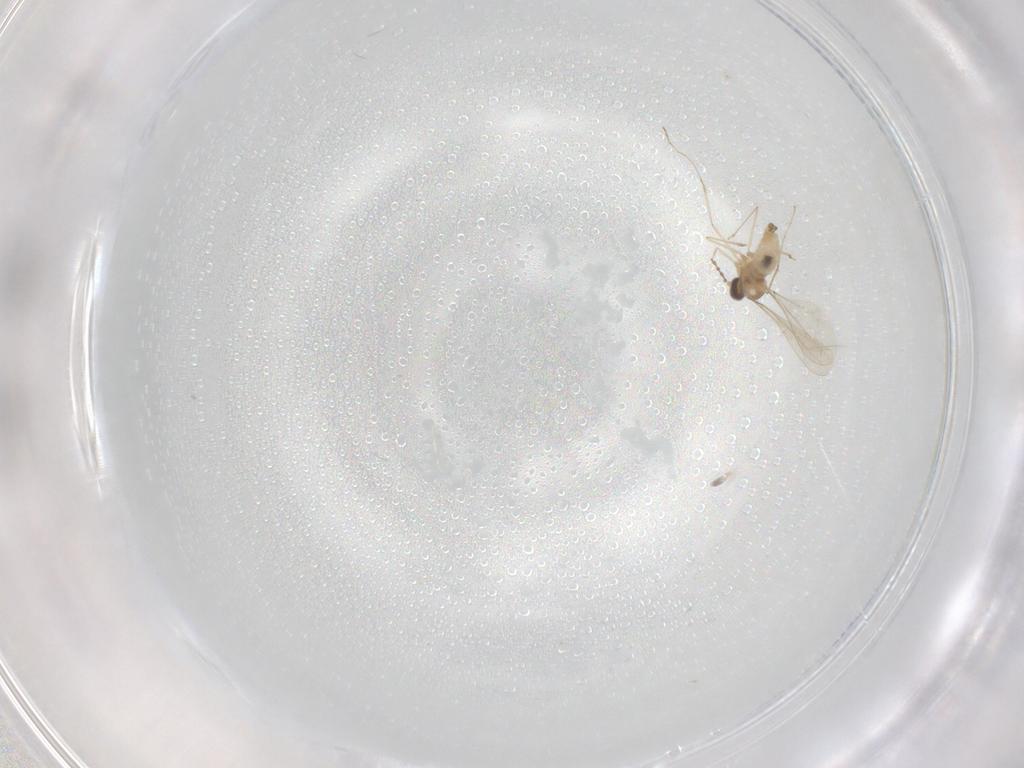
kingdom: Animalia
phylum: Arthropoda
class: Insecta
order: Diptera
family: Cecidomyiidae
